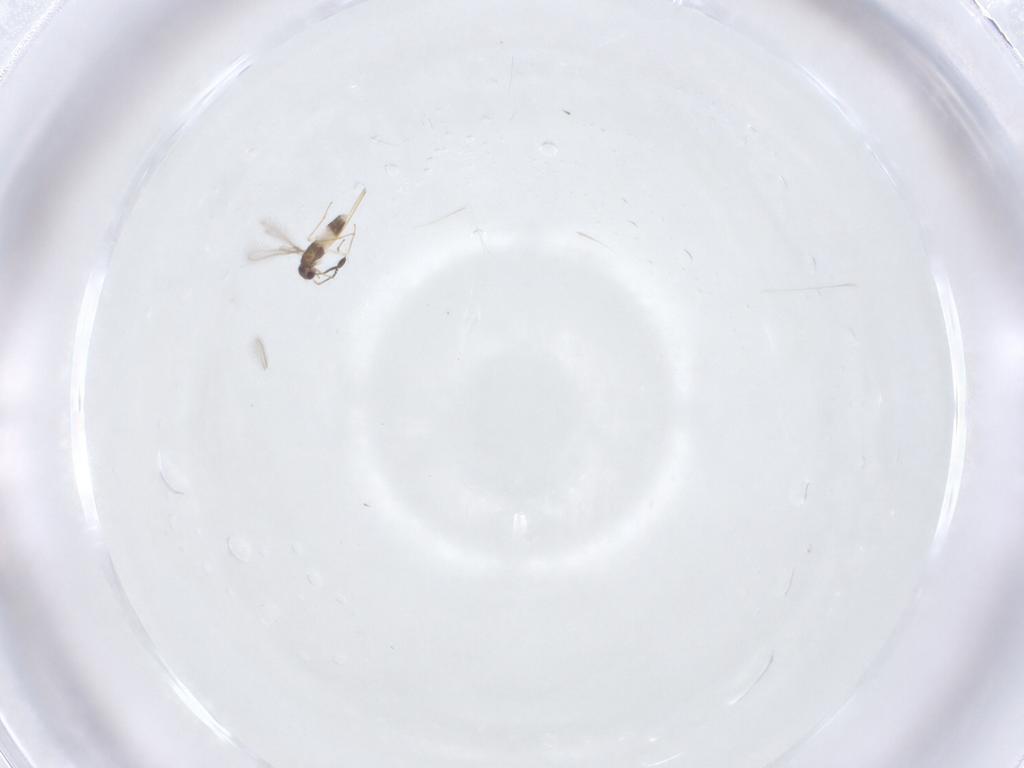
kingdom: Animalia
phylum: Arthropoda
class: Insecta
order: Hymenoptera
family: Mymaridae
